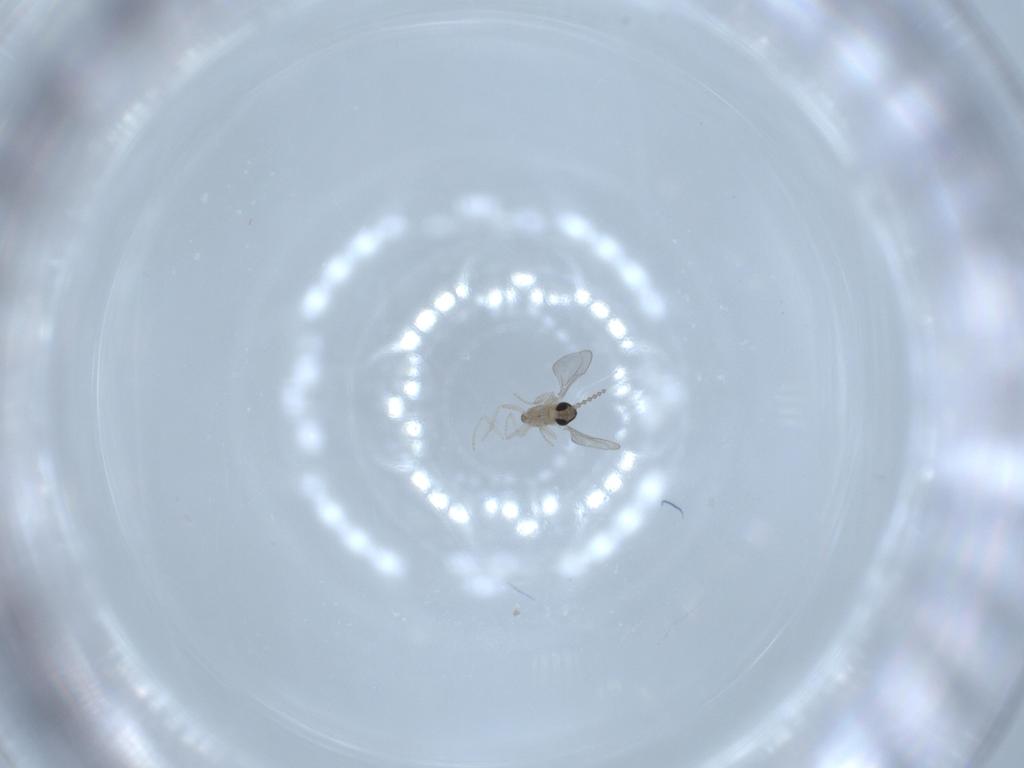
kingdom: Animalia
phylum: Arthropoda
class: Insecta
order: Diptera
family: Cecidomyiidae
